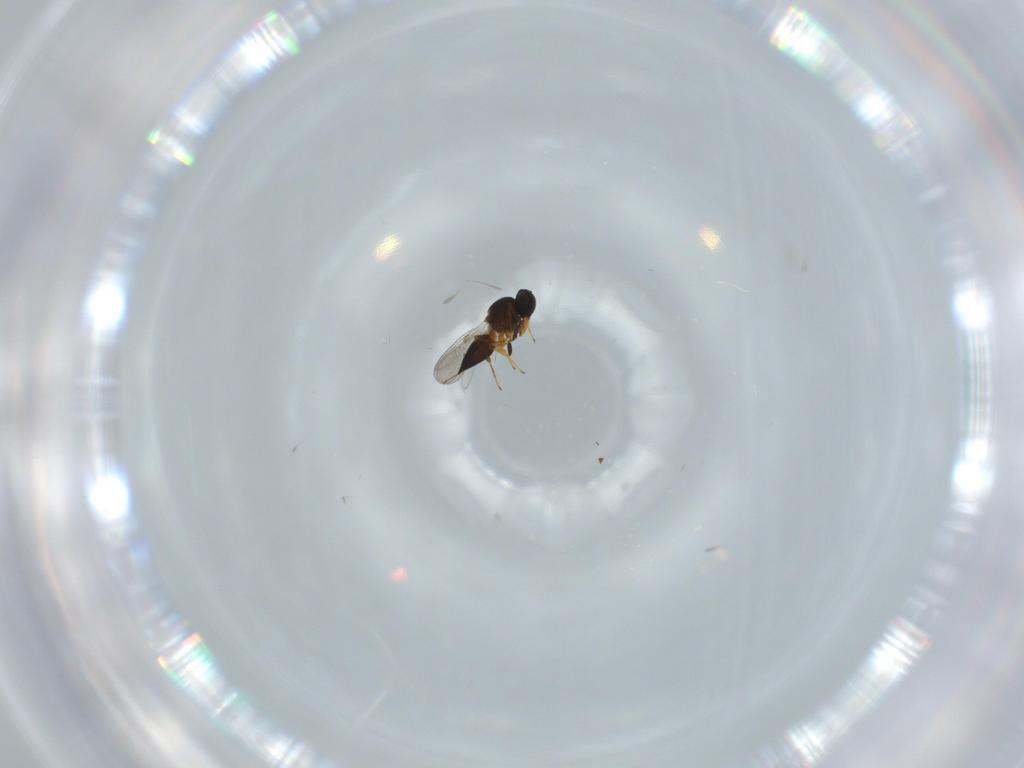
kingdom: Animalia
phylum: Arthropoda
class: Insecta
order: Hymenoptera
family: Platygastridae
